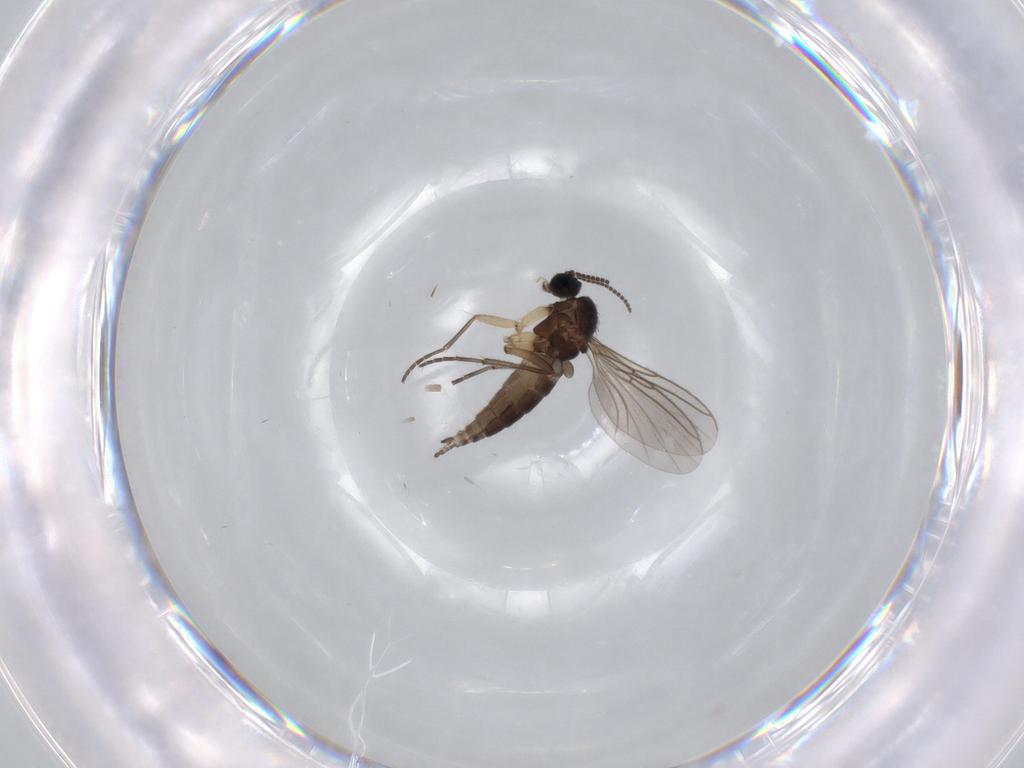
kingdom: Animalia
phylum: Arthropoda
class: Insecta
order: Diptera
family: Sciaridae
